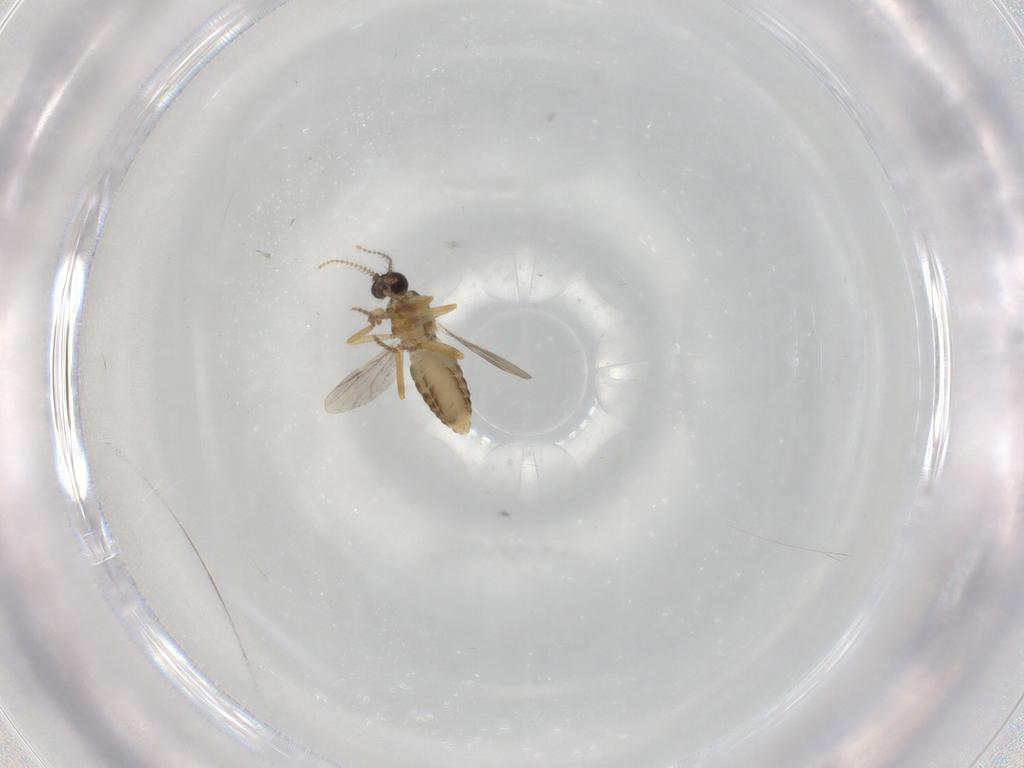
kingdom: Animalia
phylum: Arthropoda
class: Insecta
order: Diptera
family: Ceratopogonidae
